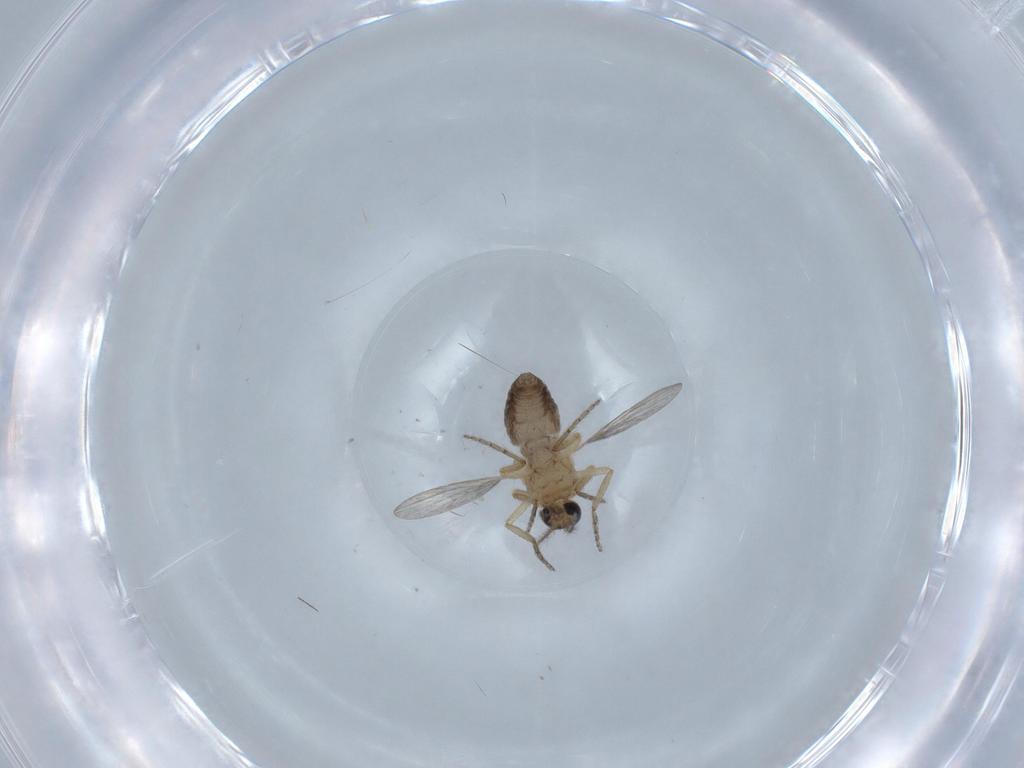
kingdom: Animalia
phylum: Arthropoda
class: Insecta
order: Diptera
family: Ceratopogonidae
